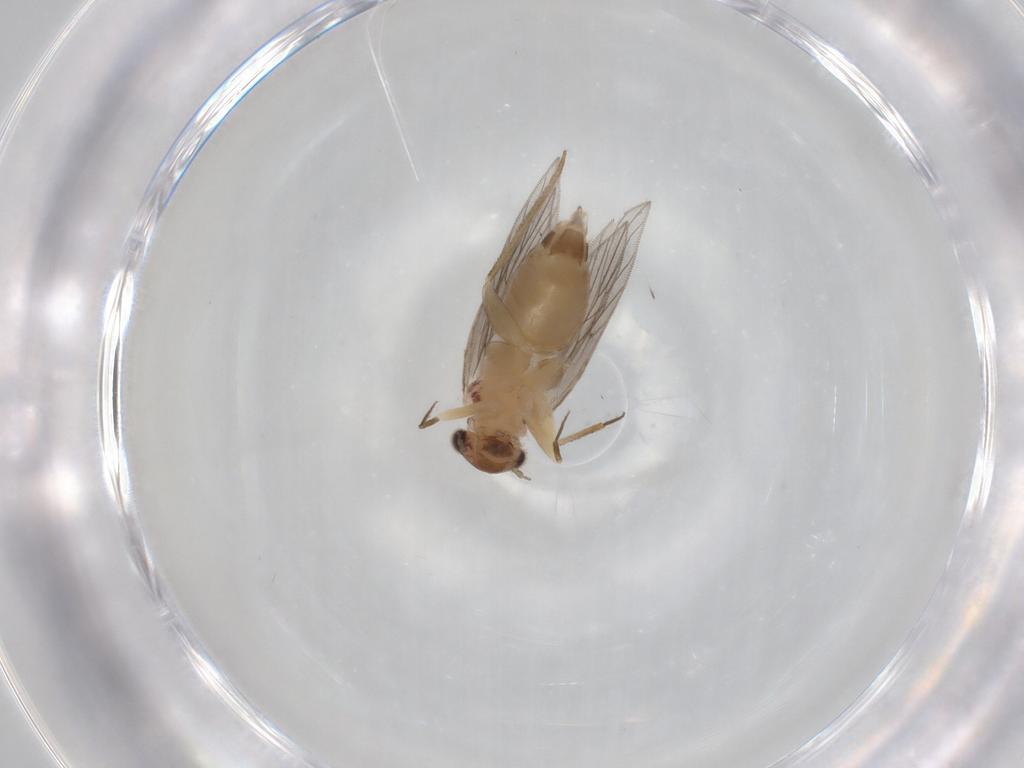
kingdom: Animalia
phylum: Arthropoda
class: Insecta
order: Psocodea
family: Lepidopsocidae
